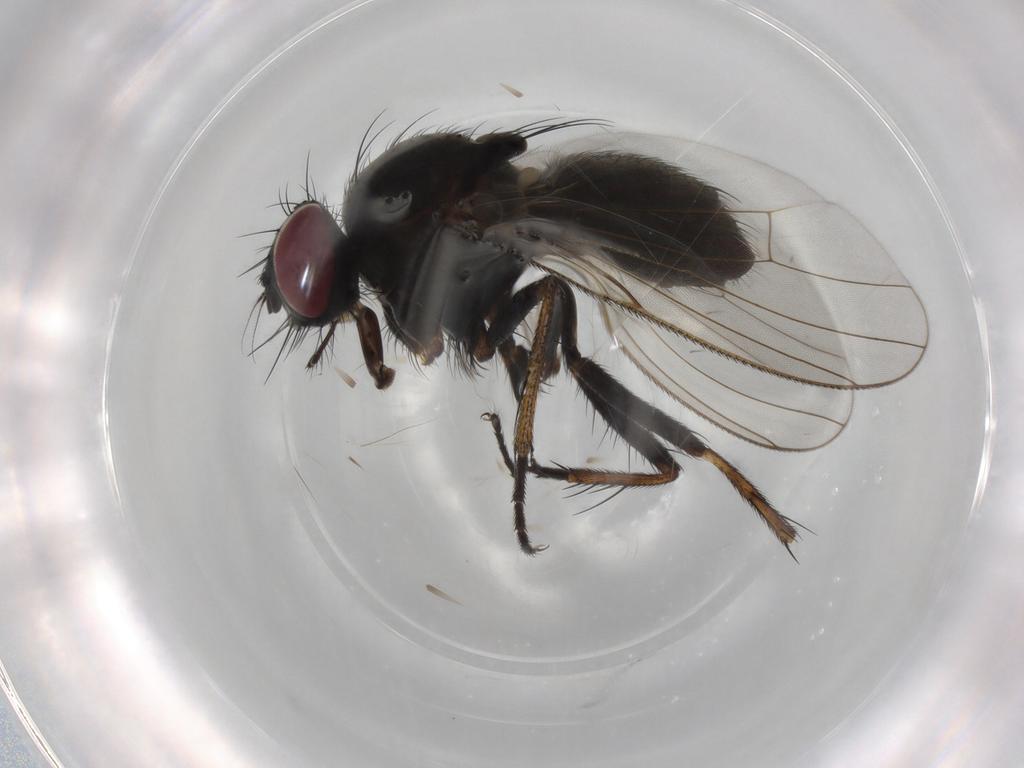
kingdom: Animalia
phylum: Arthropoda
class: Insecta
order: Diptera
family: Muscidae
